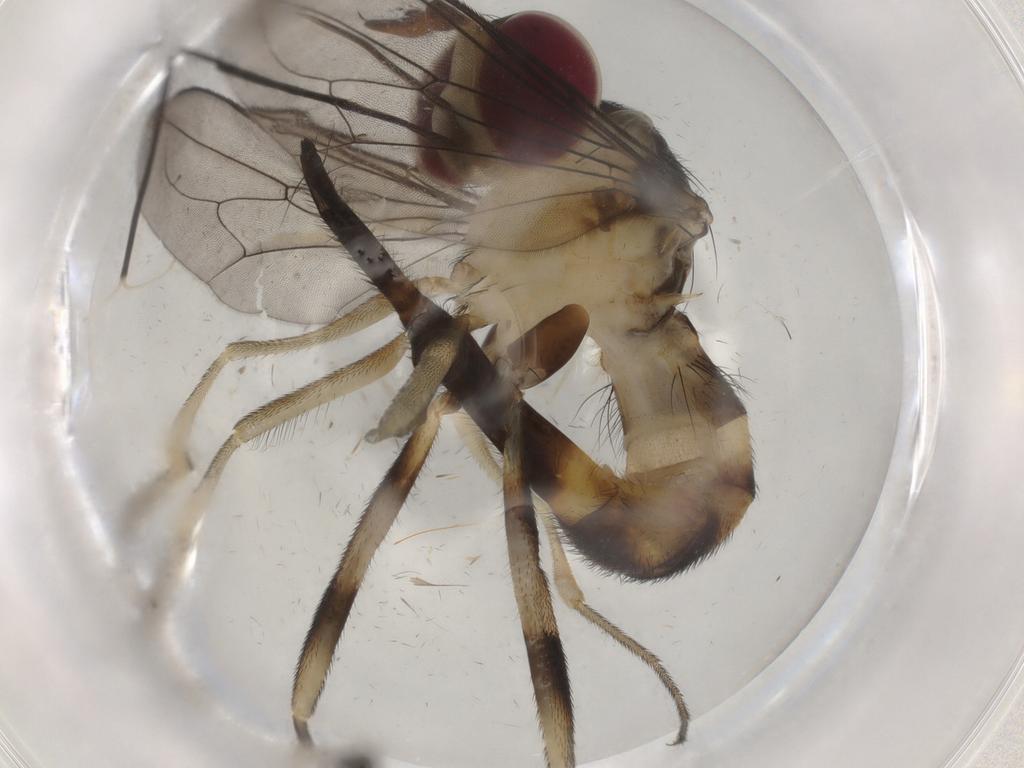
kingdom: Animalia
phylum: Arthropoda
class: Insecta
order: Diptera
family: Conopidae
